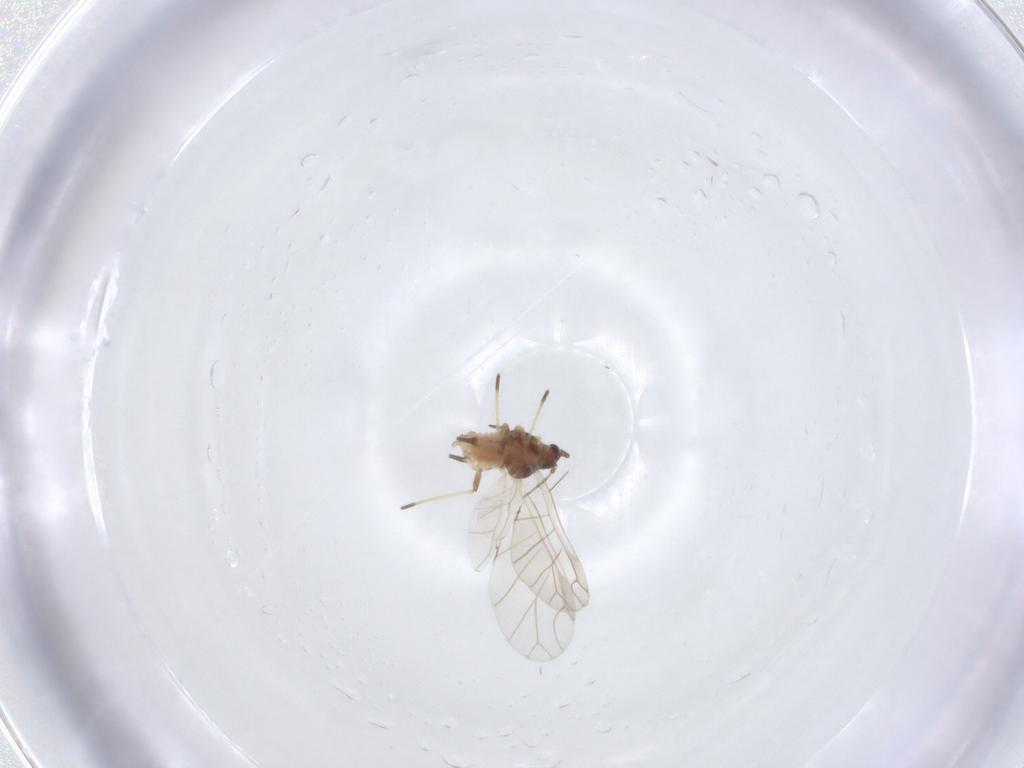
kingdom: Animalia
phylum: Arthropoda
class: Insecta
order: Hemiptera
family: Aphididae
